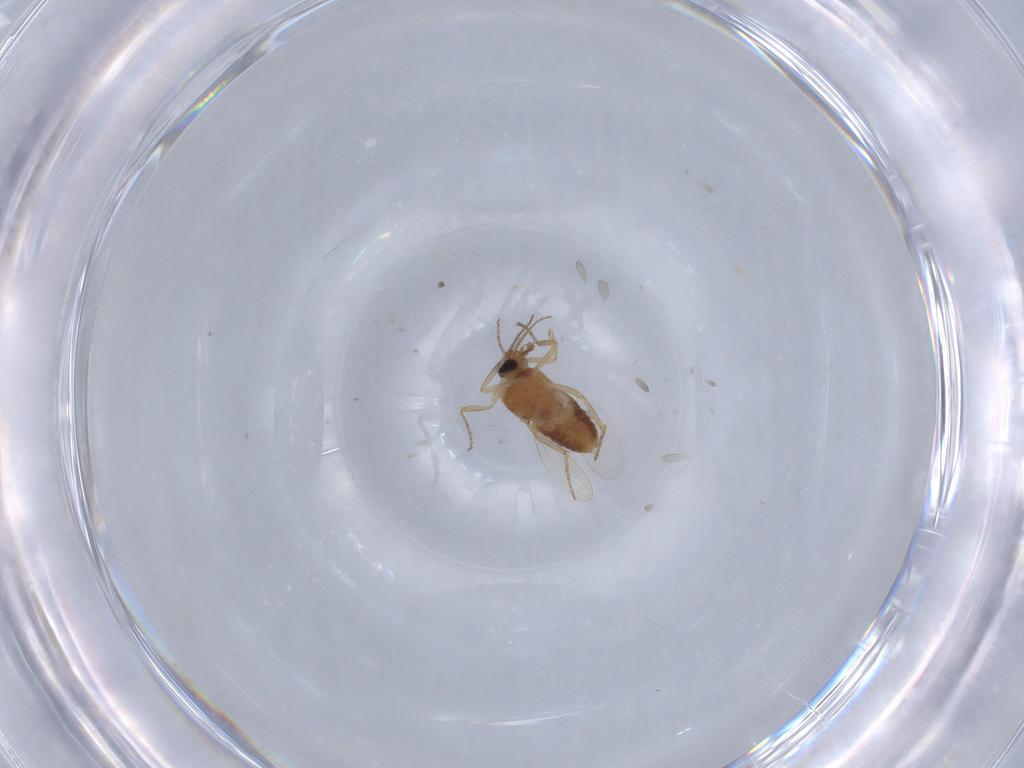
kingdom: Animalia
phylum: Arthropoda
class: Insecta
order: Diptera
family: Ceratopogonidae
